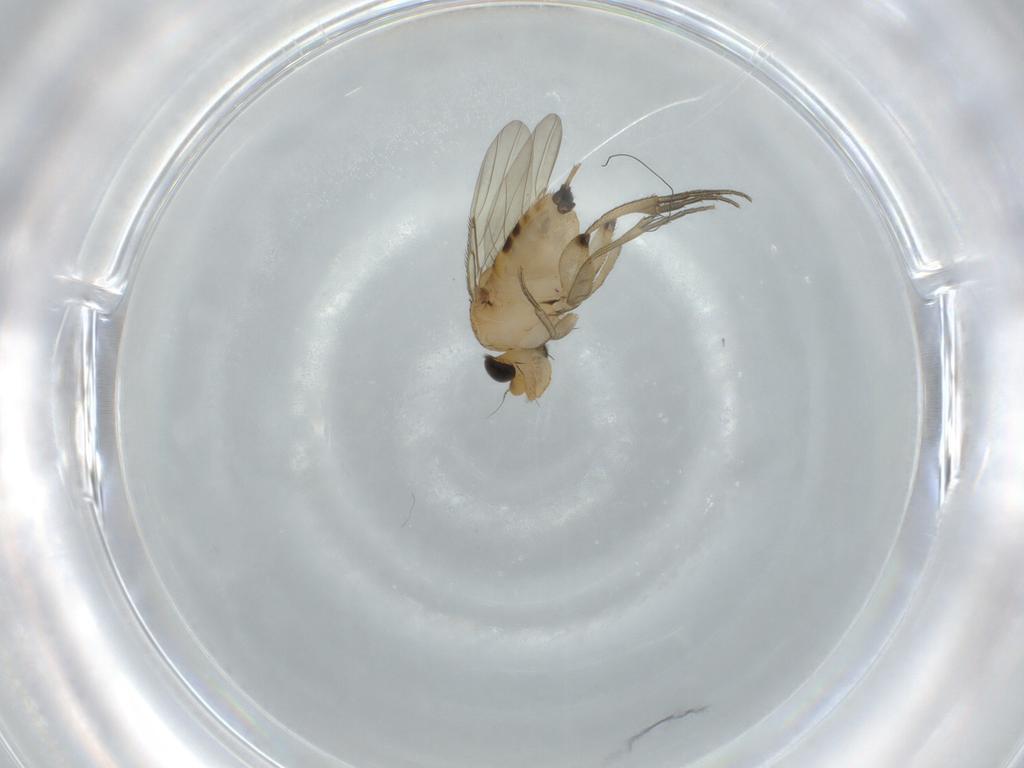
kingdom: Animalia
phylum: Arthropoda
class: Insecta
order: Diptera
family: Phoridae
